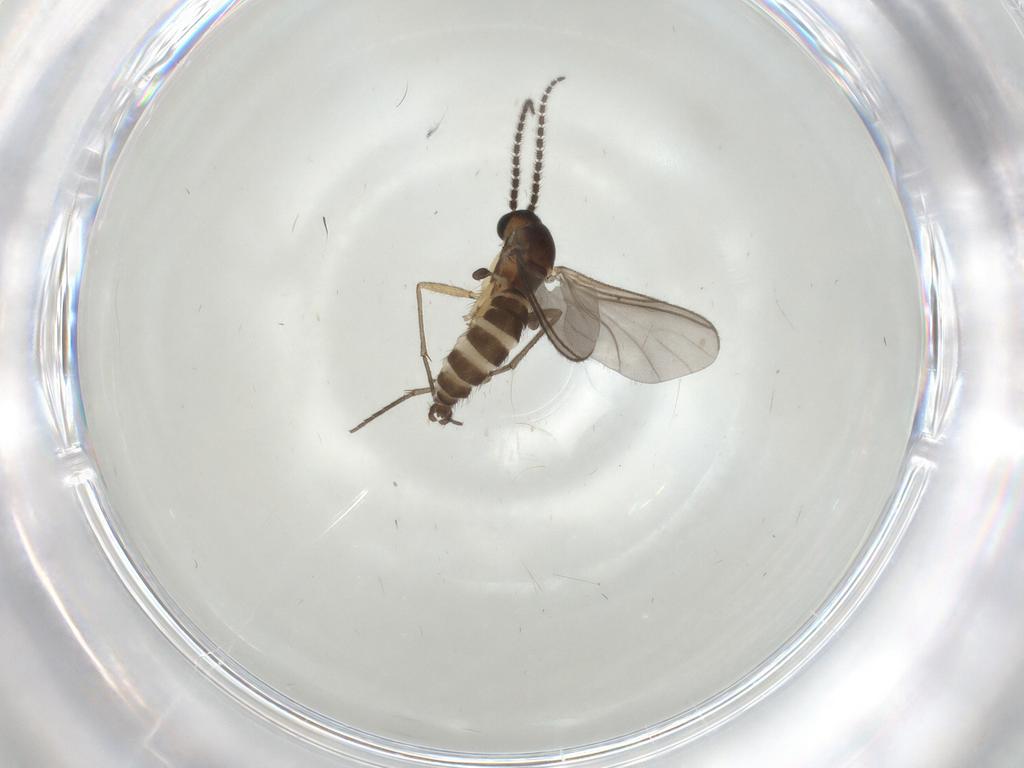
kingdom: Animalia
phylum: Arthropoda
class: Insecta
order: Diptera
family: Sciaridae
